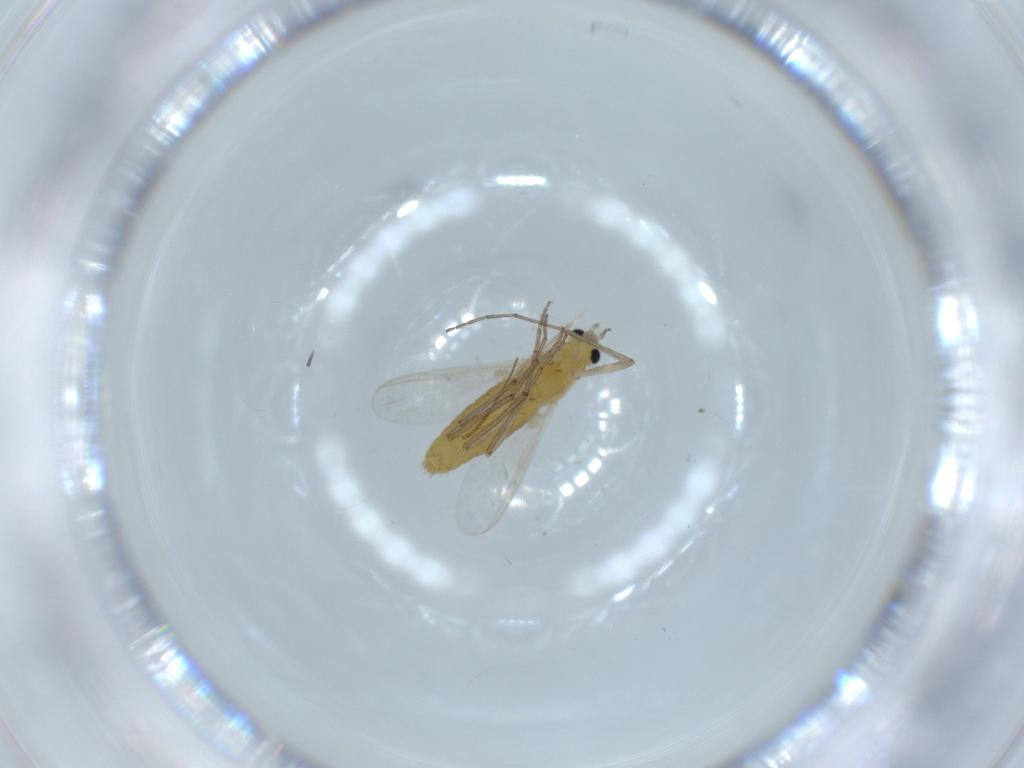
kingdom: Animalia
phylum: Arthropoda
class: Insecta
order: Diptera
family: Chironomidae
